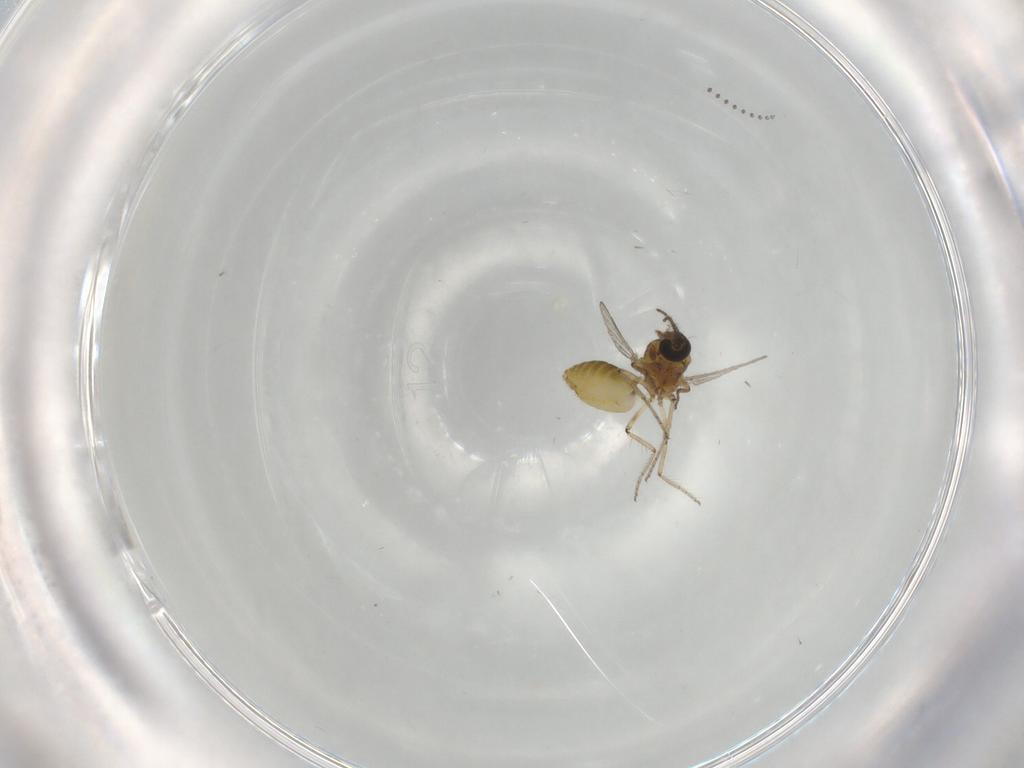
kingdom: Animalia
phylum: Arthropoda
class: Insecta
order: Diptera
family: Ceratopogonidae
